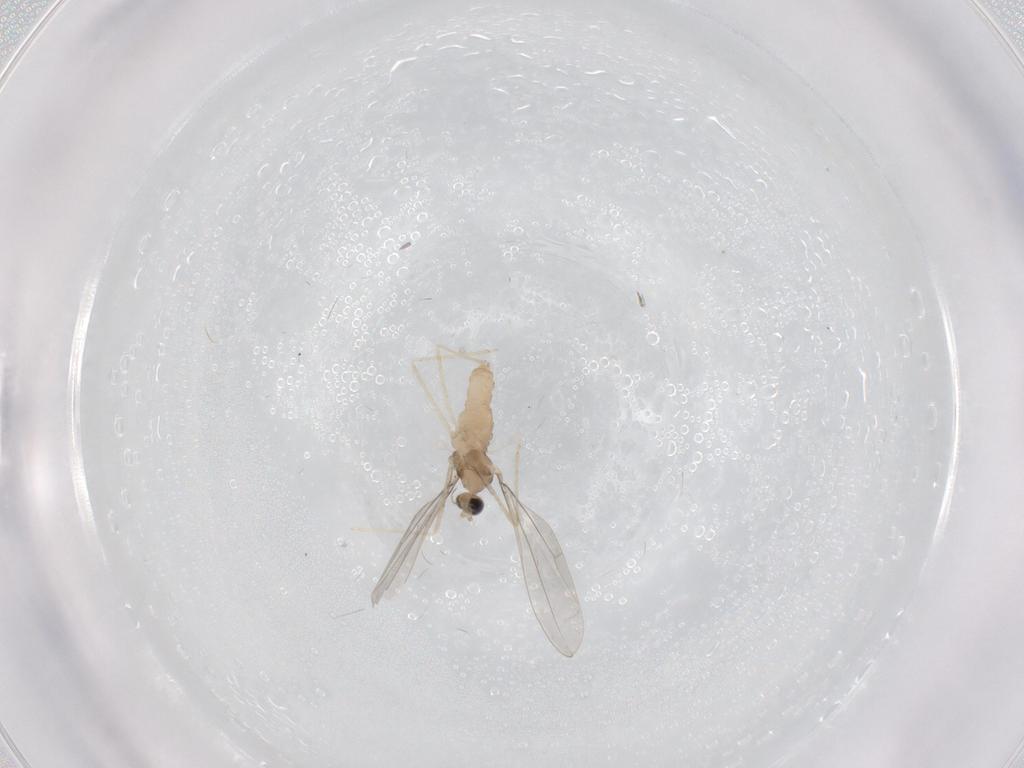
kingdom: Animalia
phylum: Arthropoda
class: Insecta
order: Diptera
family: Cecidomyiidae
